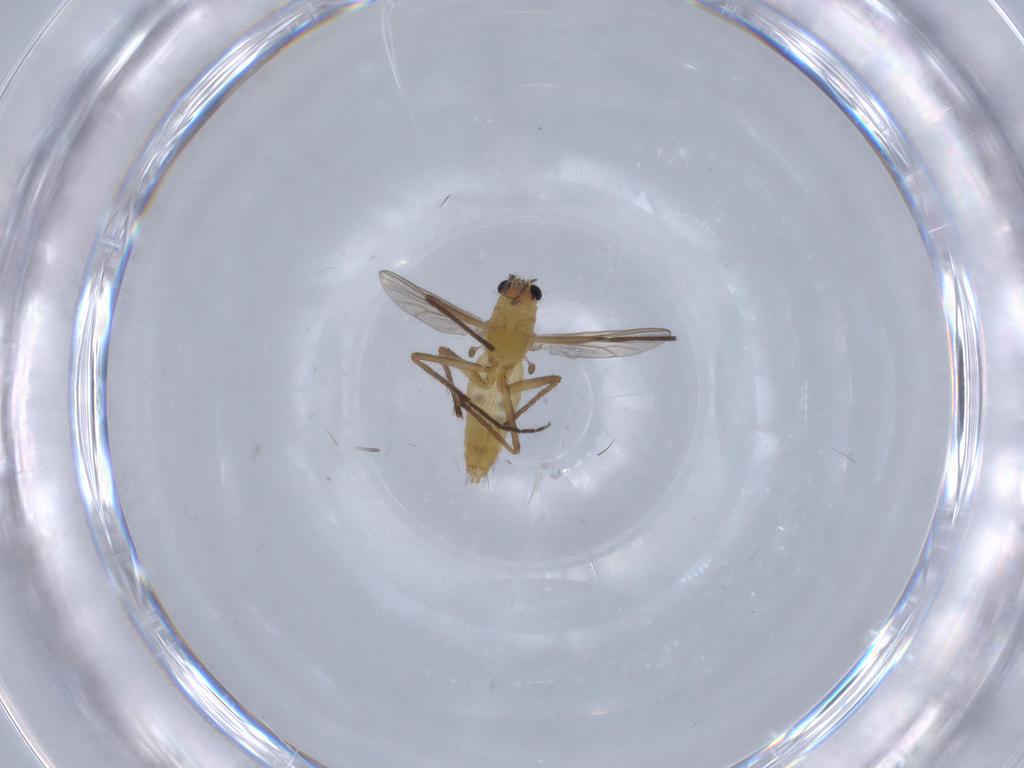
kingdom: Animalia
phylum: Arthropoda
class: Insecta
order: Diptera
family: Chironomidae
